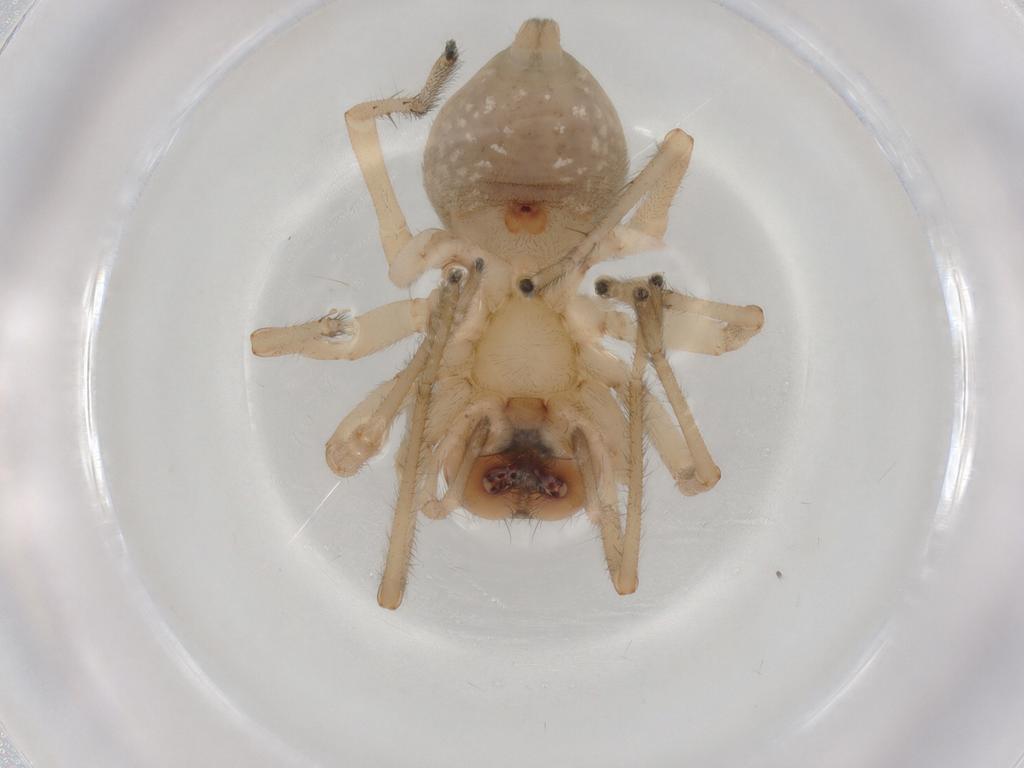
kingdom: Animalia
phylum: Arthropoda
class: Arachnida
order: Araneae
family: Cheiracanthiidae
